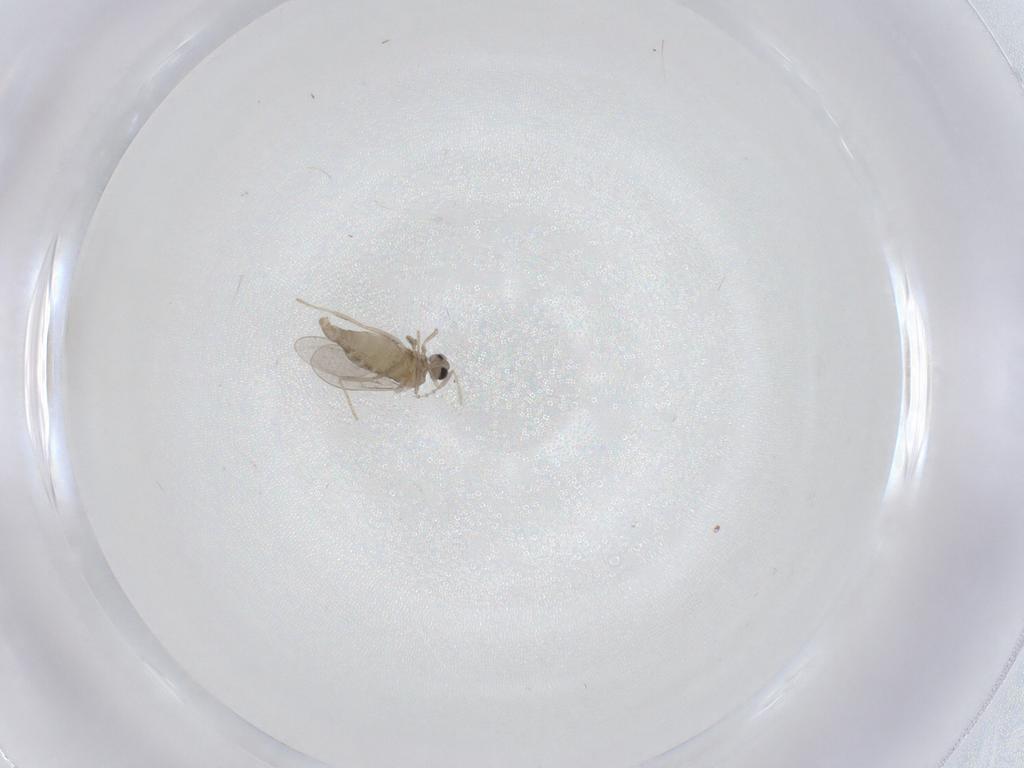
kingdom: Animalia
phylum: Arthropoda
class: Insecta
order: Diptera
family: Cecidomyiidae
